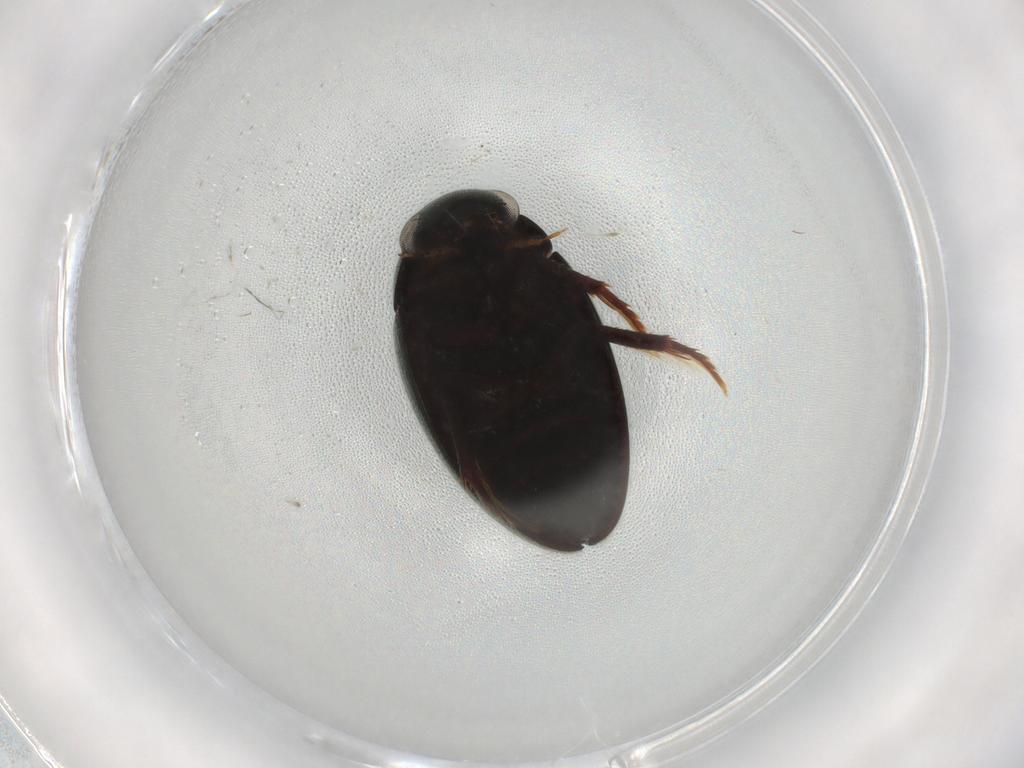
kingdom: Animalia
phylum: Arthropoda
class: Insecta
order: Coleoptera
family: Hydrophilidae
